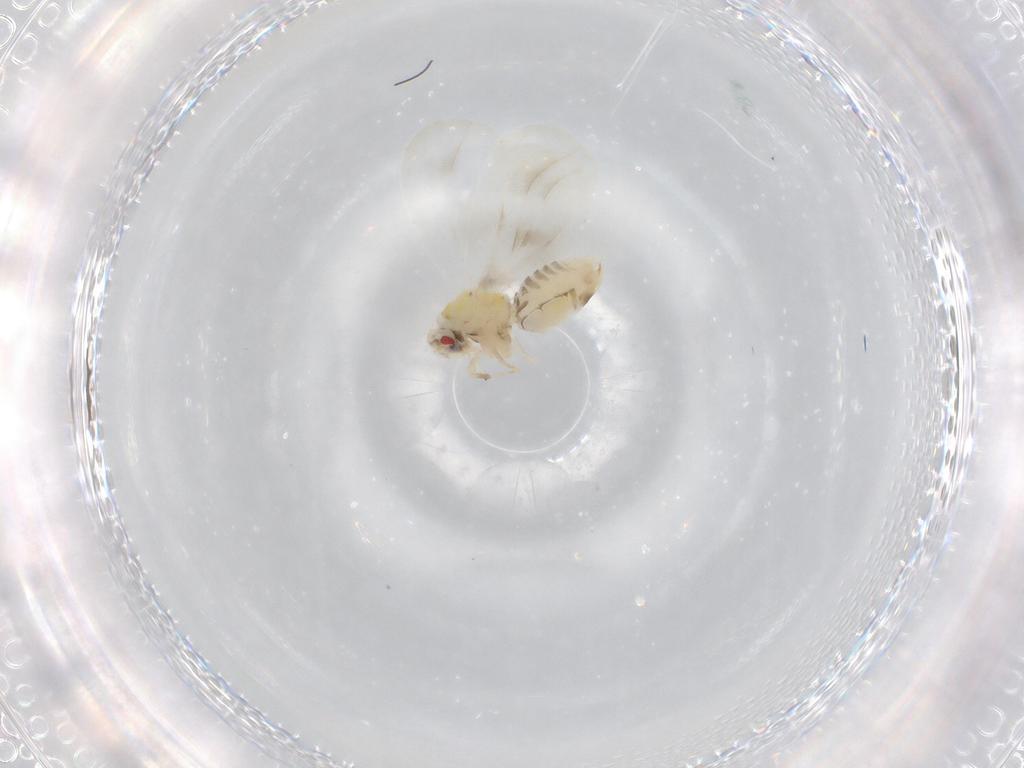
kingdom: Animalia
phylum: Arthropoda
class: Insecta
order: Hemiptera
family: Aleyrodidae
